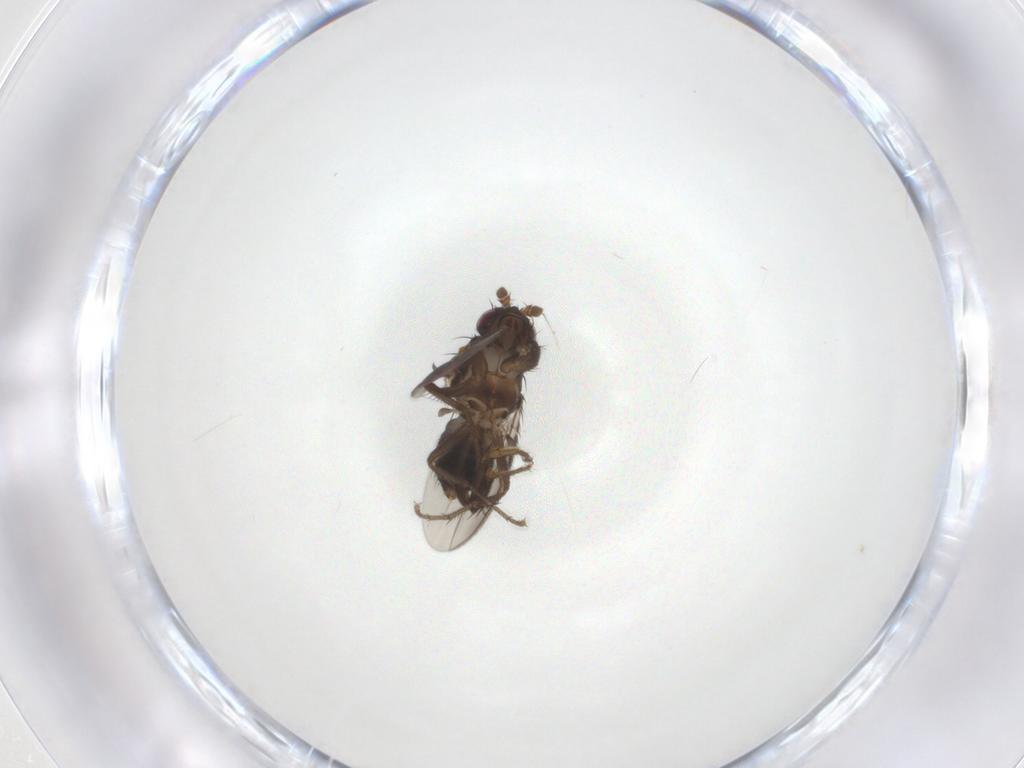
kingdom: Animalia
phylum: Arthropoda
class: Insecta
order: Diptera
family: Sphaeroceridae
